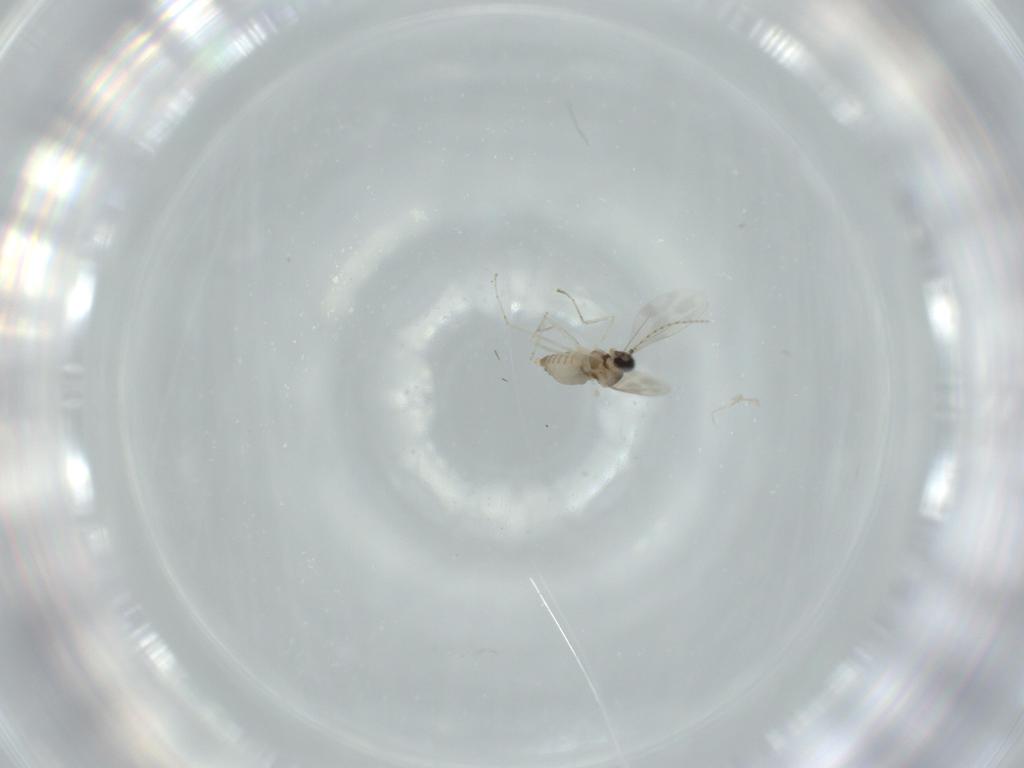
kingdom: Animalia
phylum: Arthropoda
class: Insecta
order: Diptera
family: Cecidomyiidae
